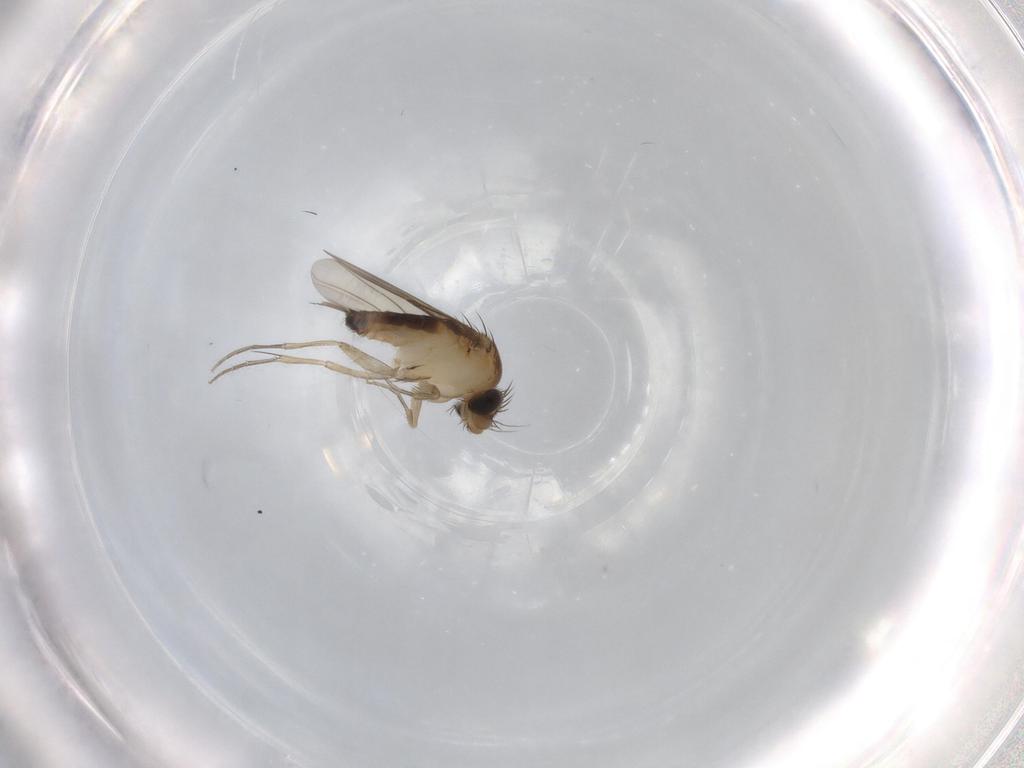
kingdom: Animalia
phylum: Arthropoda
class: Insecta
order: Diptera
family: Phoridae
